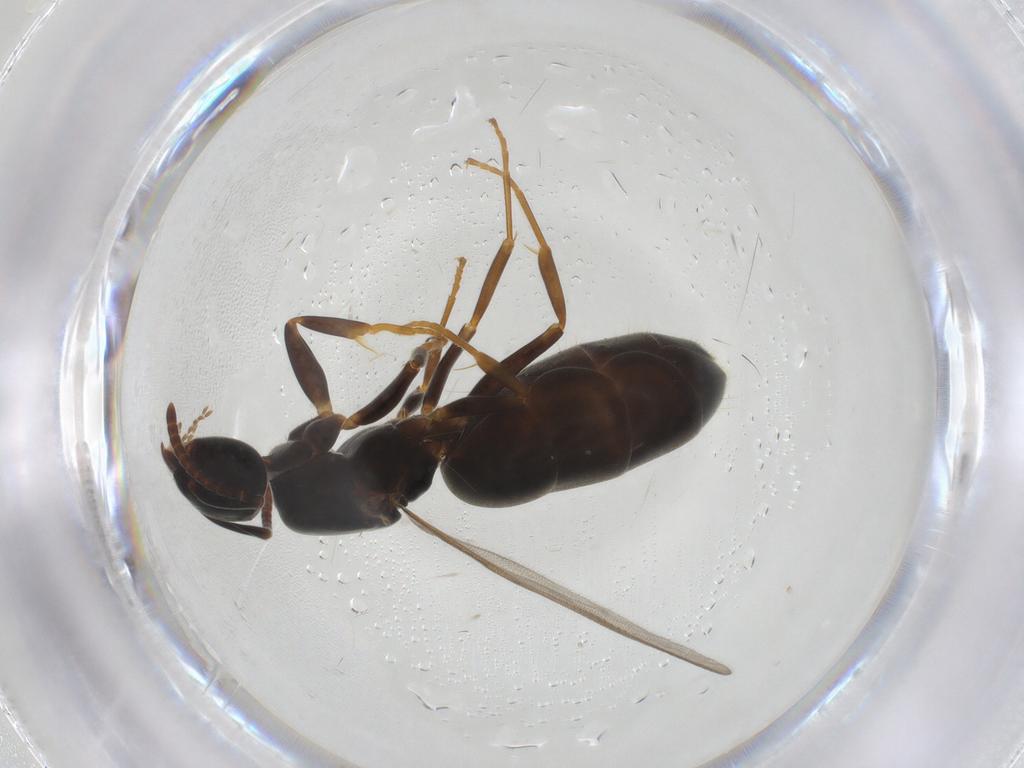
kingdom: Animalia
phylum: Arthropoda
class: Insecta
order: Hymenoptera
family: Formicidae
